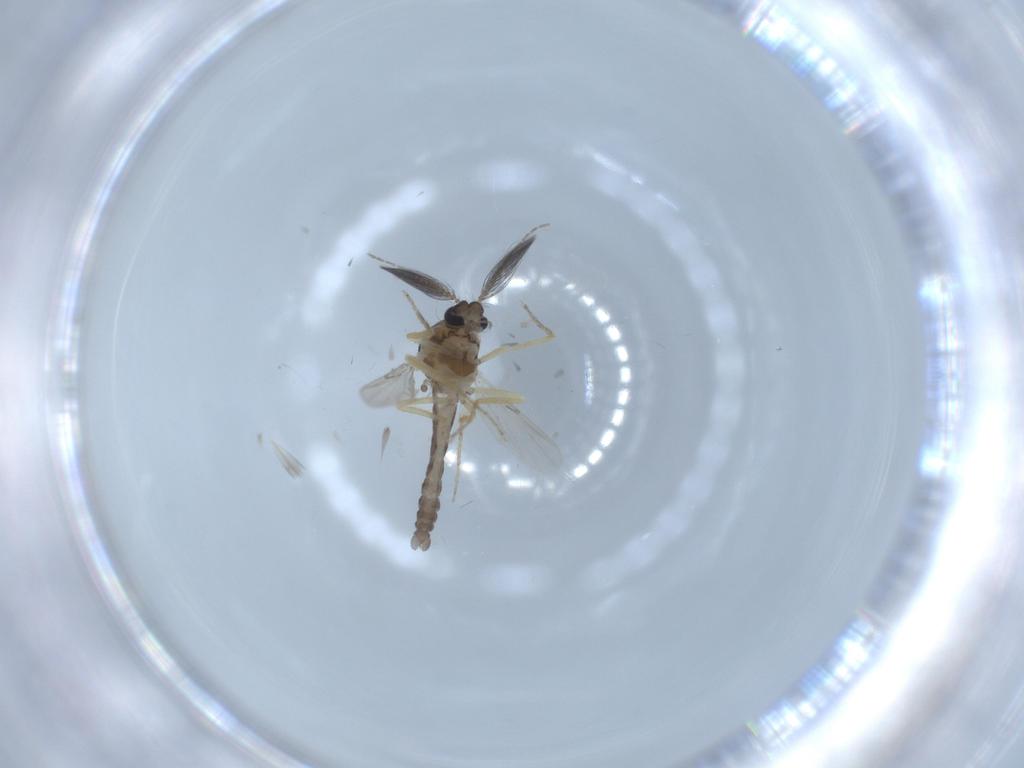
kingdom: Animalia
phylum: Arthropoda
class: Insecta
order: Diptera
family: Ceratopogonidae
